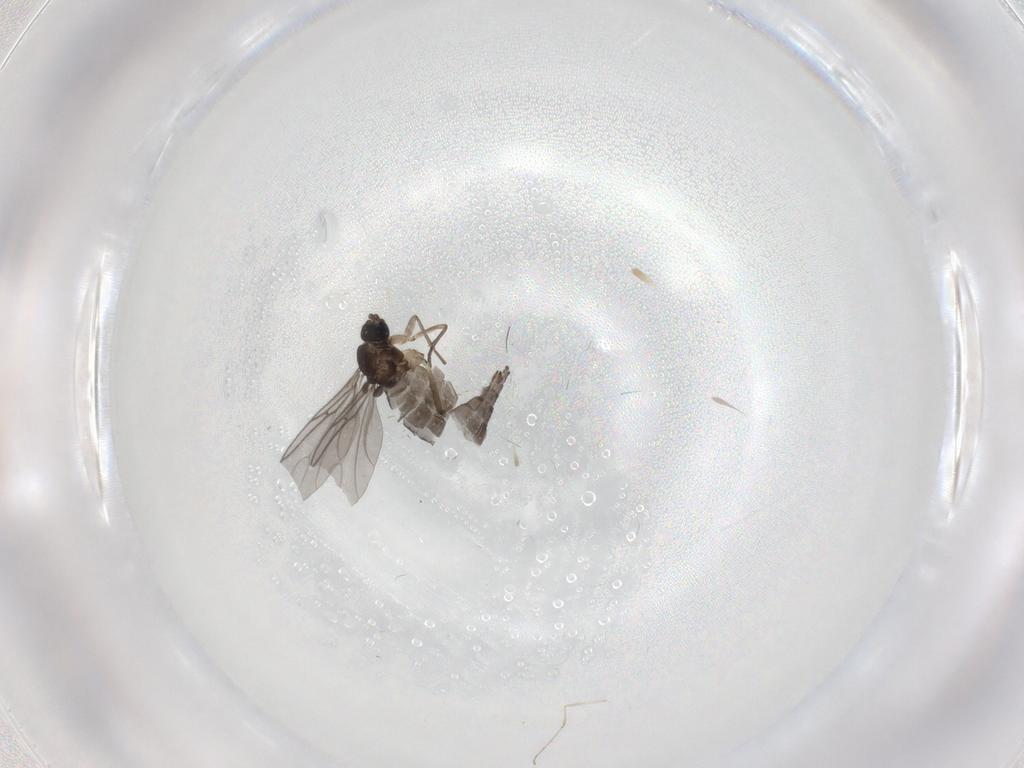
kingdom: Animalia
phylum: Arthropoda
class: Insecta
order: Diptera
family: Sciaridae
